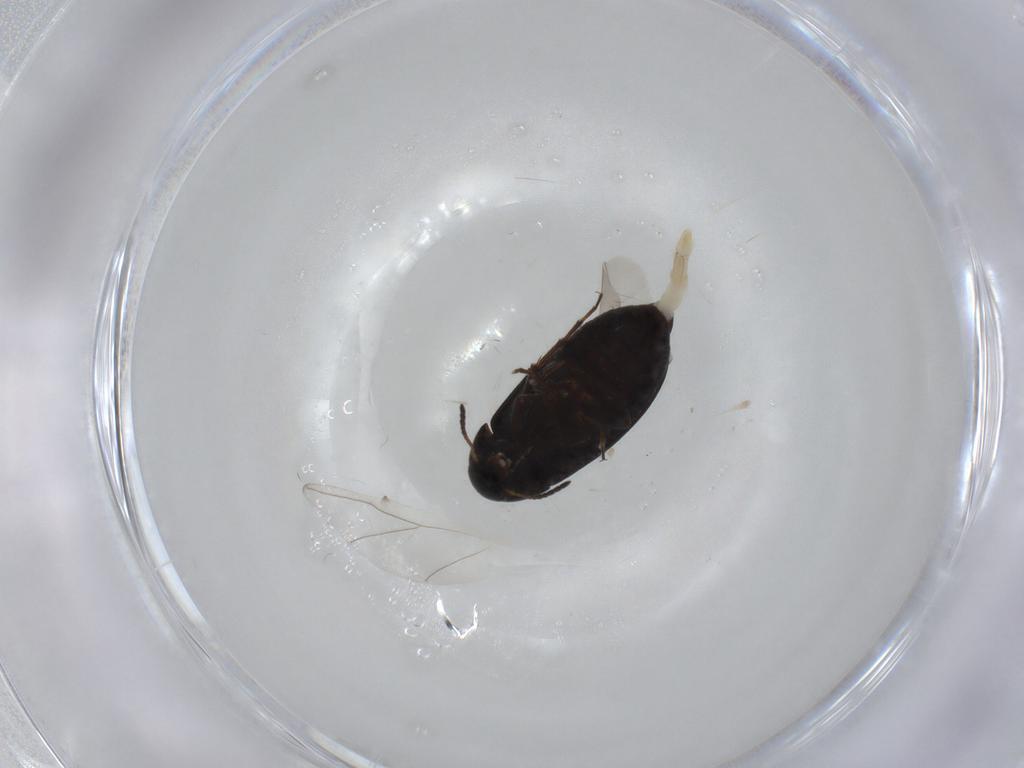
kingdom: Animalia
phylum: Arthropoda
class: Insecta
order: Coleoptera
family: Scraptiidae
